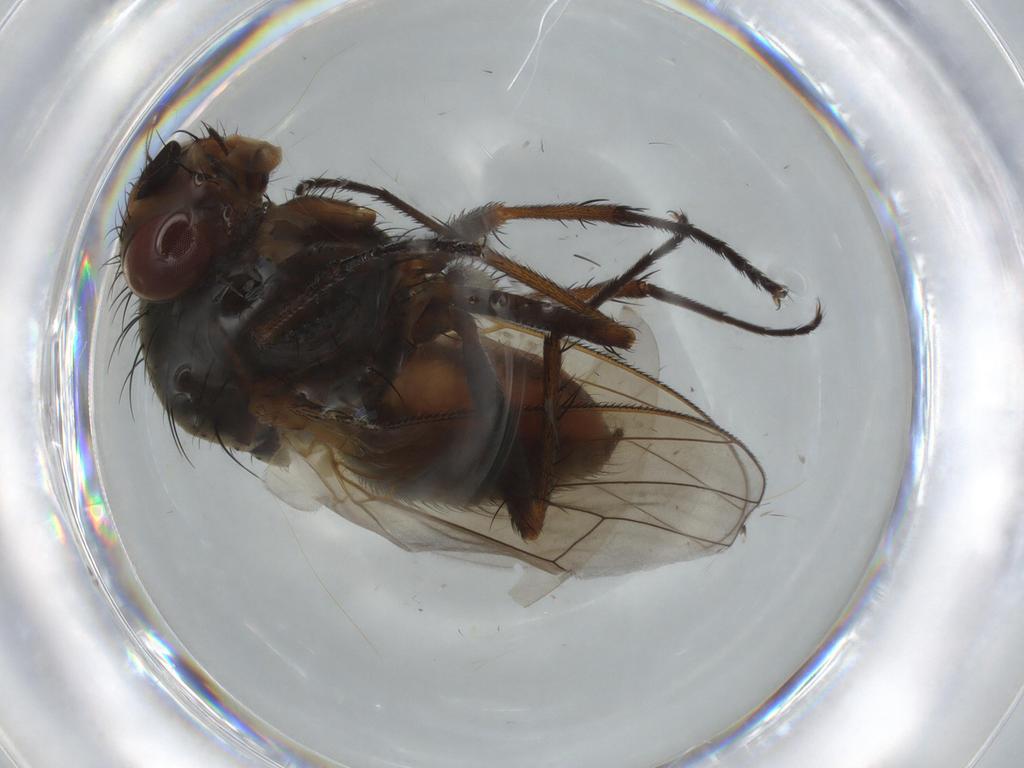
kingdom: Animalia
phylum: Arthropoda
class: Insecta
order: Diptera
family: Anthomyiidae
